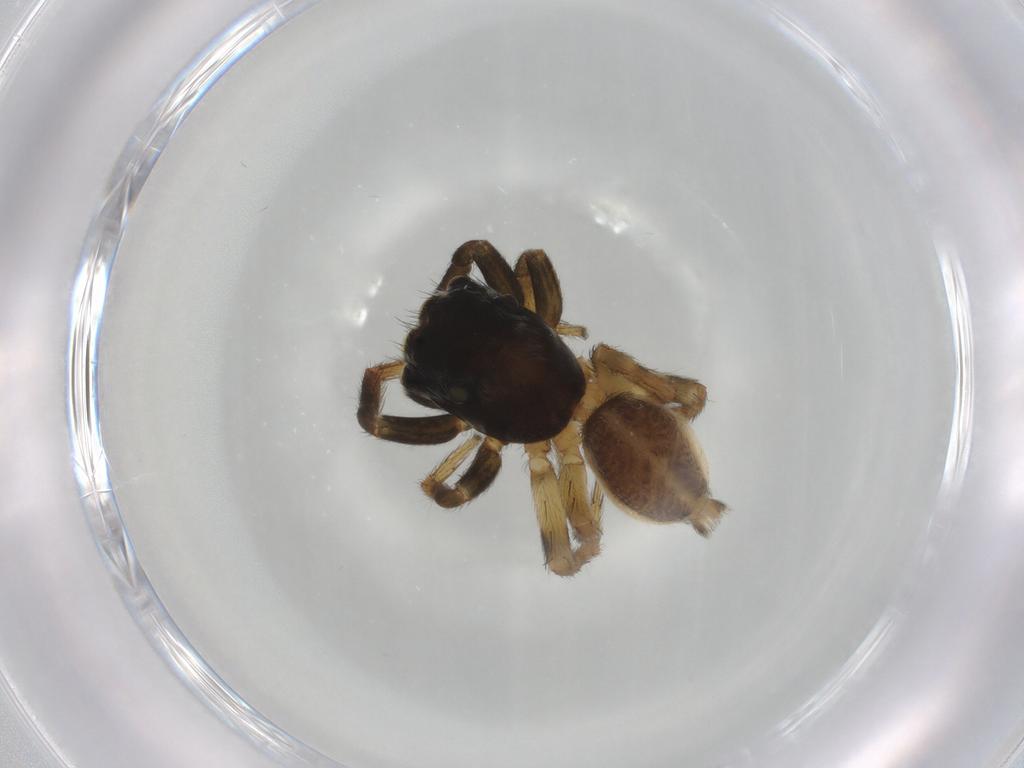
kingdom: Animalia
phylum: Arthropoda
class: Arachnida
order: Araneae
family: Salticidae
